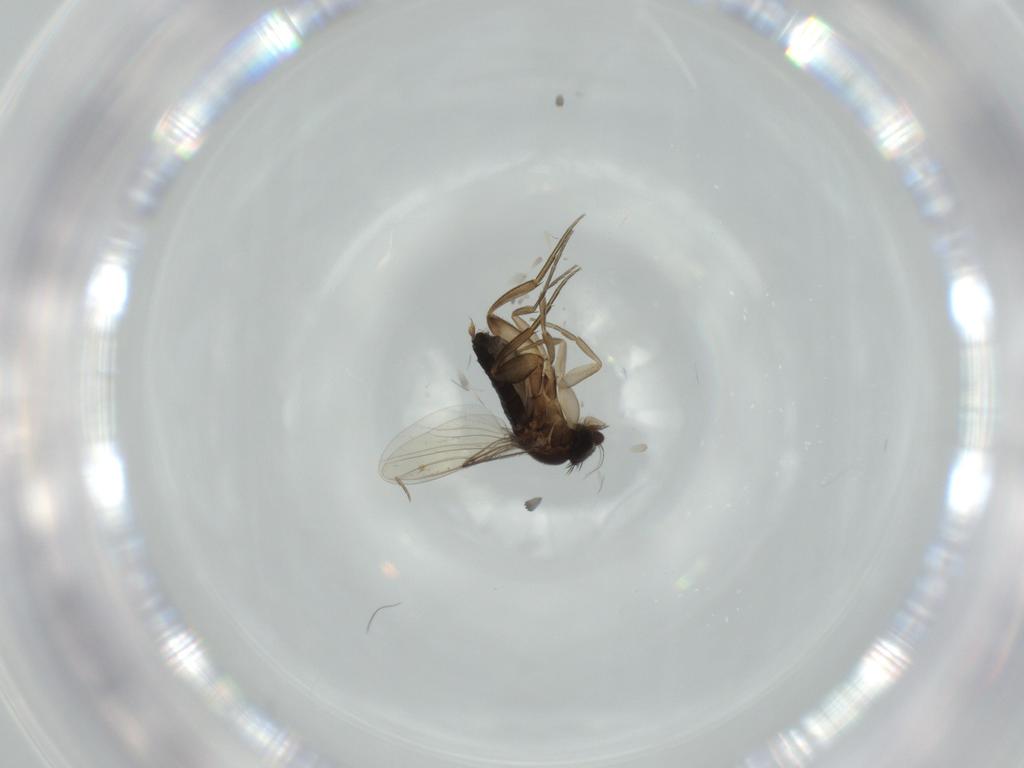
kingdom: Animalia
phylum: Arthropoda
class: Insecta
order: Diptera
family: Phoridae
